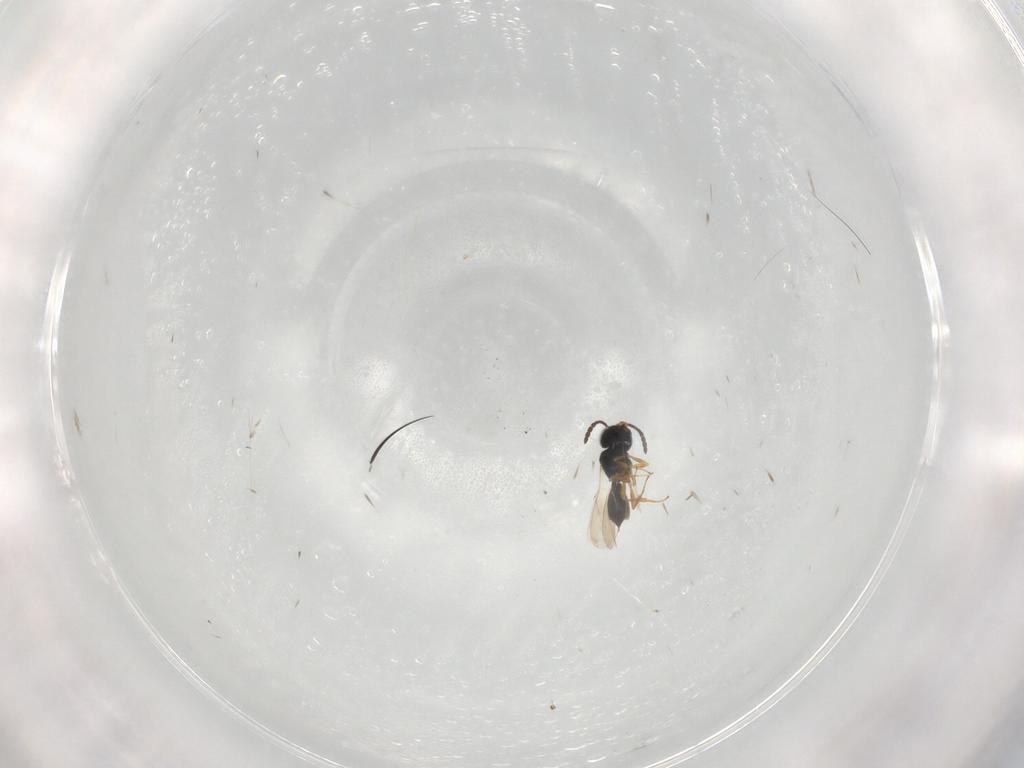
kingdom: Animalia
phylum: Arthropoda
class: Insecta
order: Hymenoptera
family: Scelionidae
